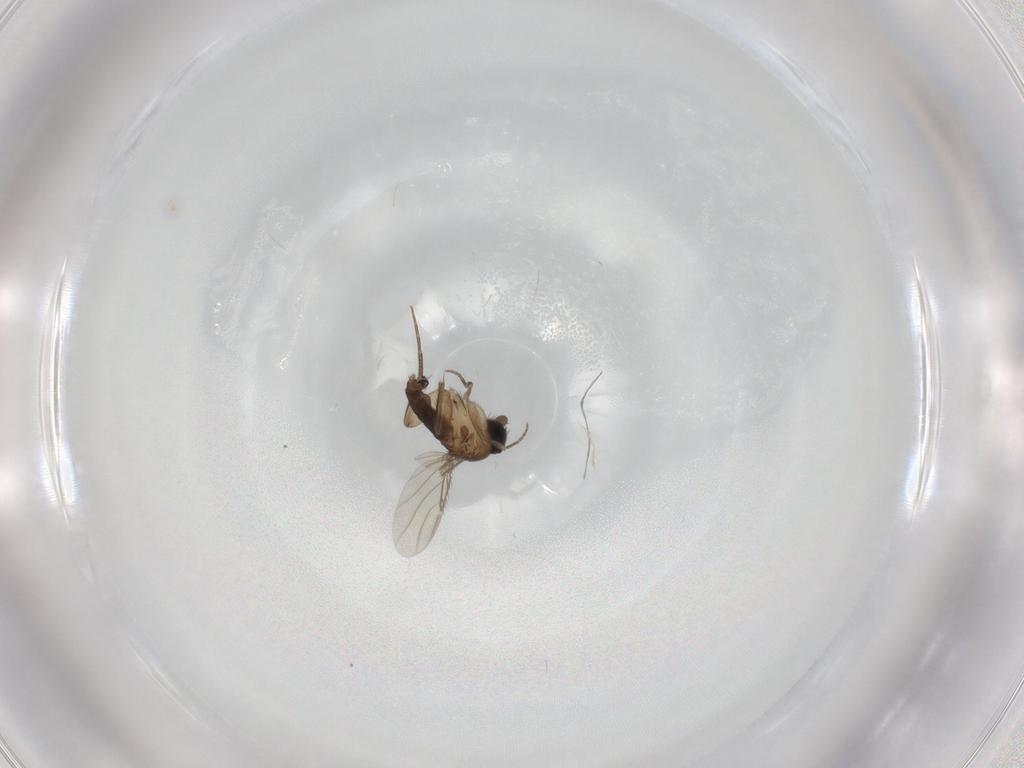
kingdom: Animalia
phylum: Arthropoda
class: Insecta
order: Diptera
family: Phoridae
